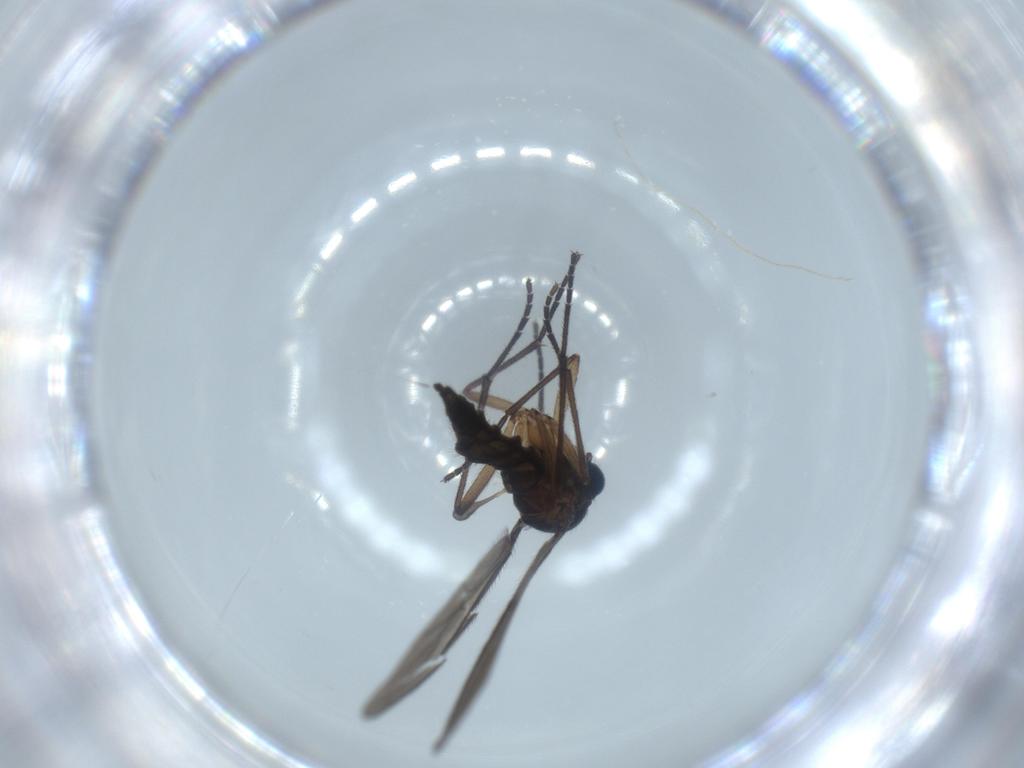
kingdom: Animalia
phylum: Arthropoda
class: Insecta
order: Diptera
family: Sciaridae
